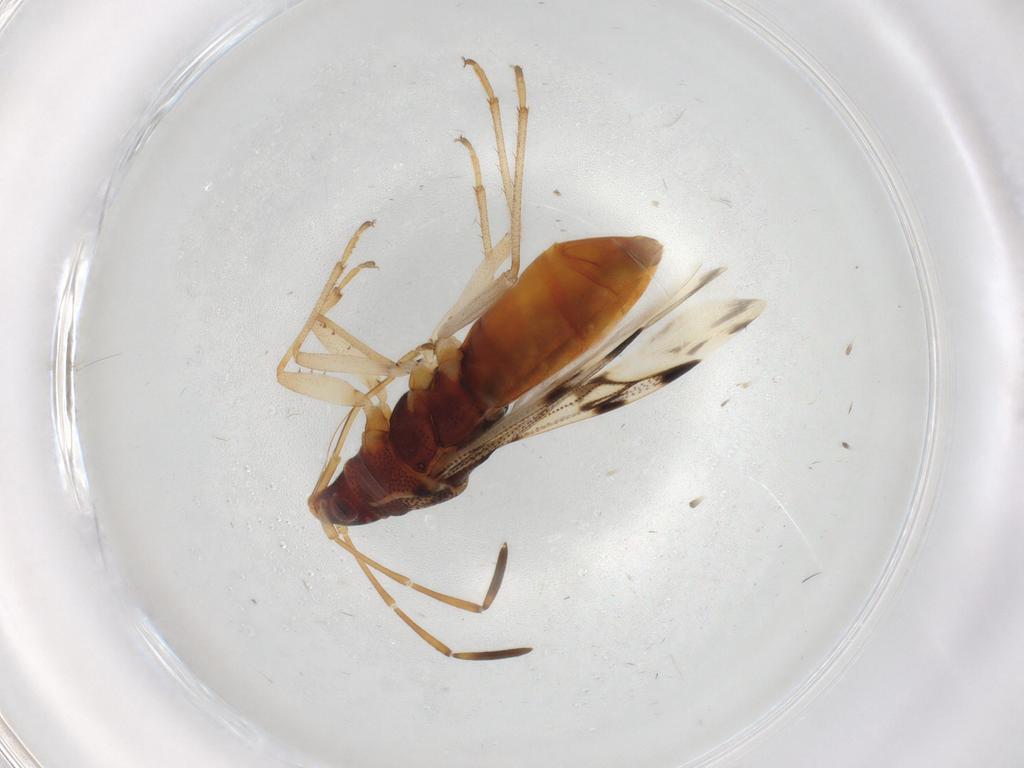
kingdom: Animalia
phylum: Arthropoda
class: Insecta
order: Hemiptera
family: Rhyparochromidae
